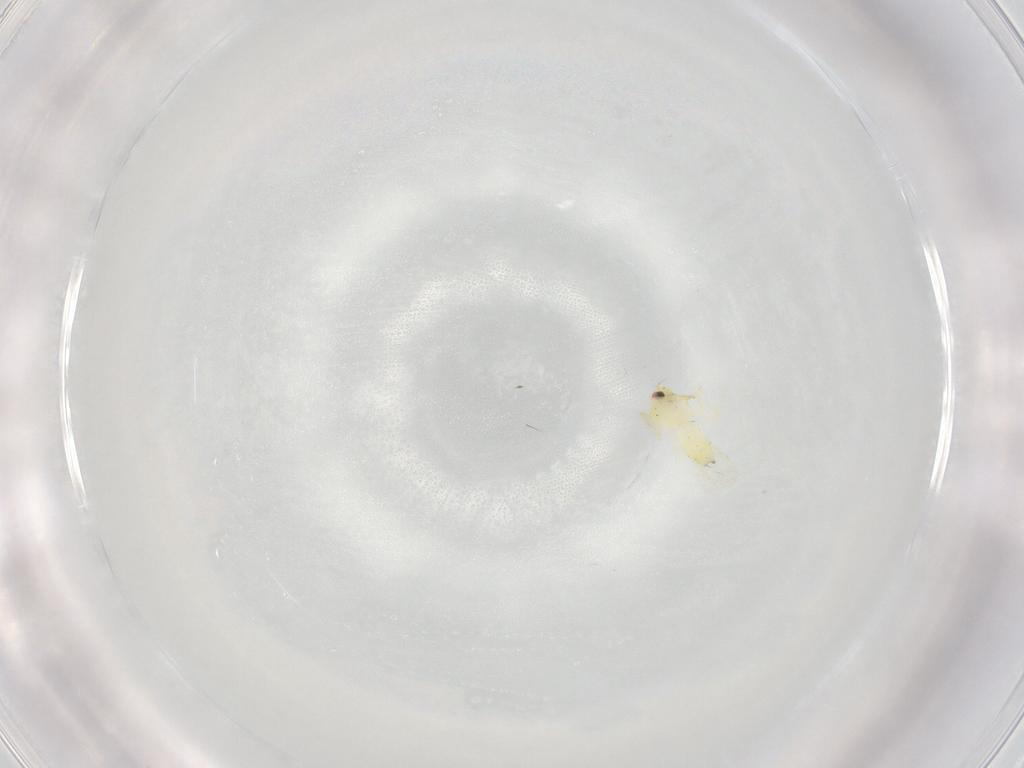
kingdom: Animalia
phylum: Arthropoda
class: Insecta
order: Hemiptera
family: Aleyrodidae
